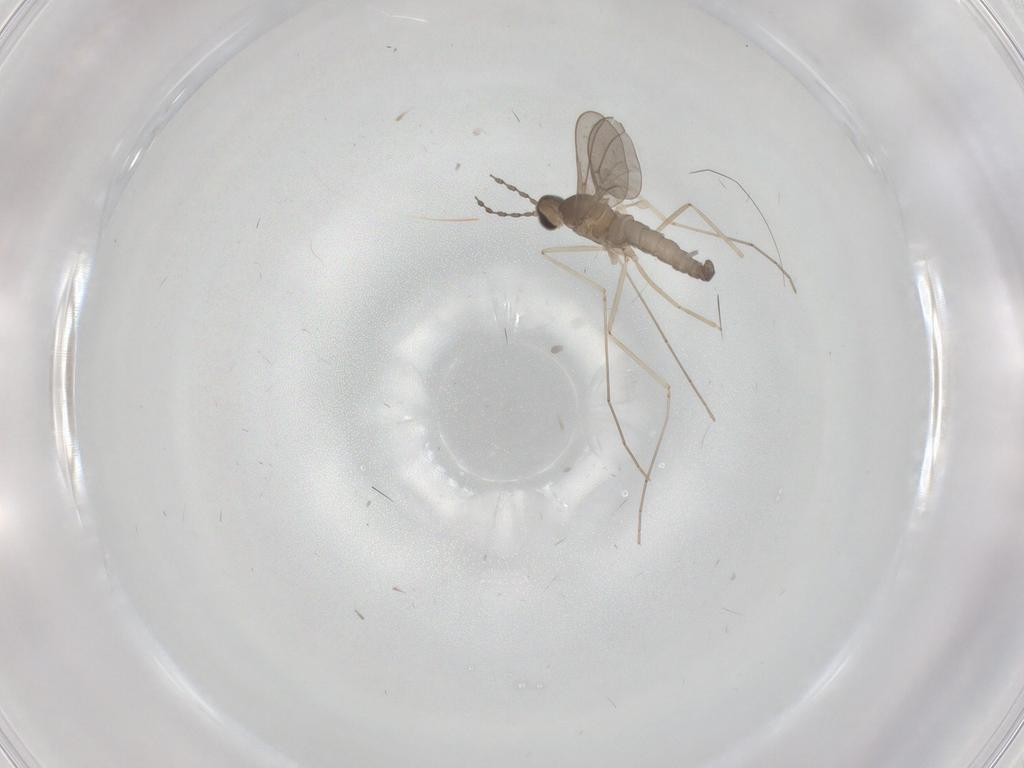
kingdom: Animalia
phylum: Arthropoda
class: Insecta
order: Diptera
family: Cecidomyiidae
